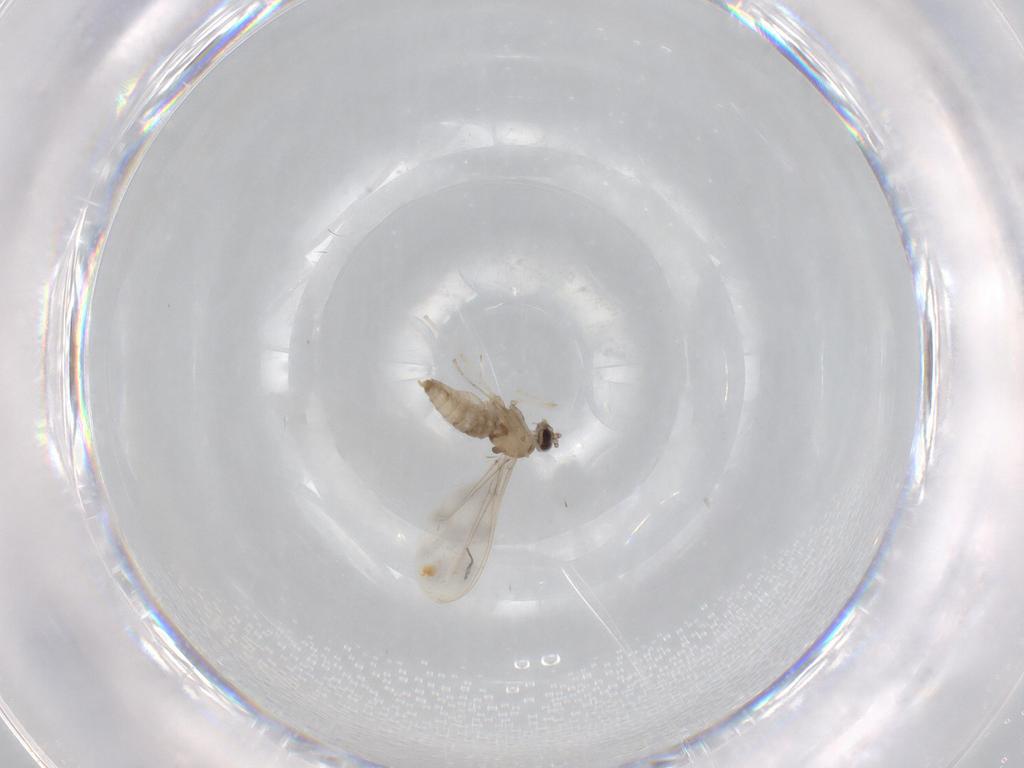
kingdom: Animalia
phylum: Arthropoda
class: Insecta
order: Diptera
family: Cecidomyiidae
